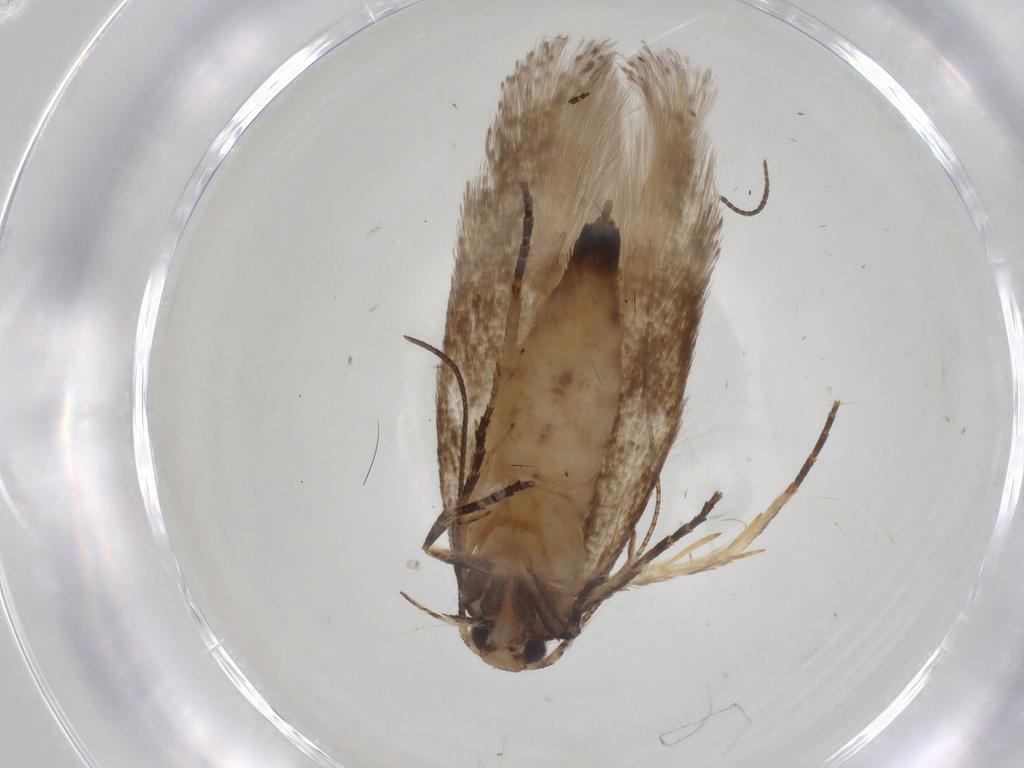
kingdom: Animalia
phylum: Arthropoda
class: Insecta
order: Lepidoptera
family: Gelechiidae
